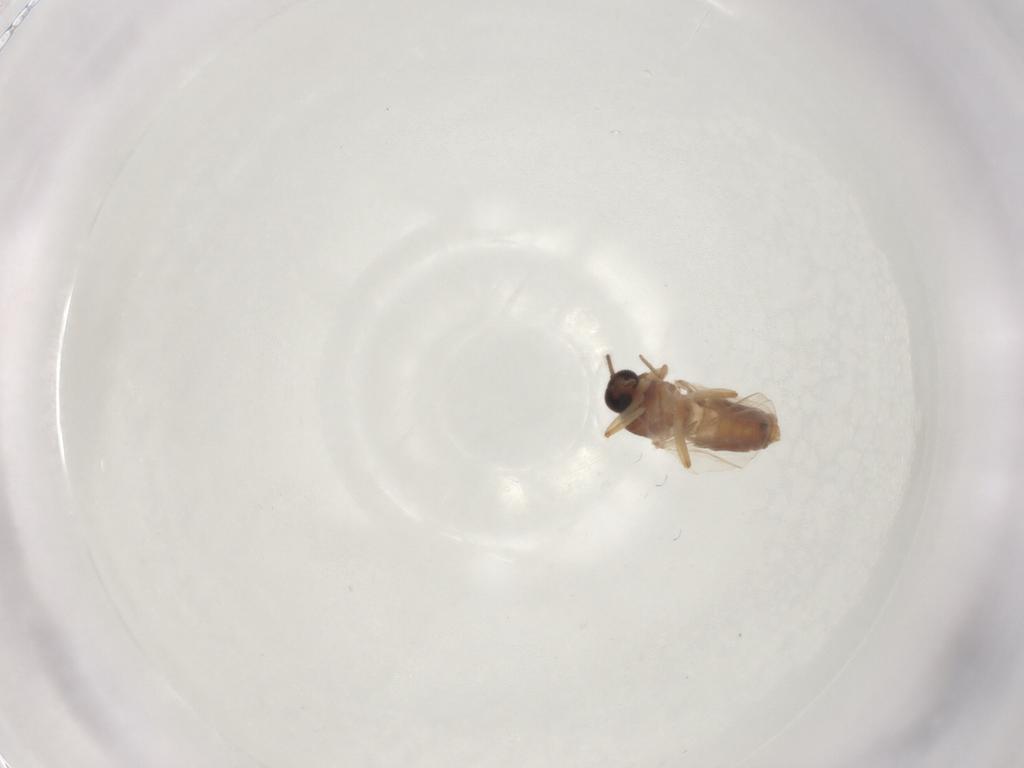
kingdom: Animalia
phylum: Arthropoda
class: Insecta
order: Diptera
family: Ceratopogonidae
